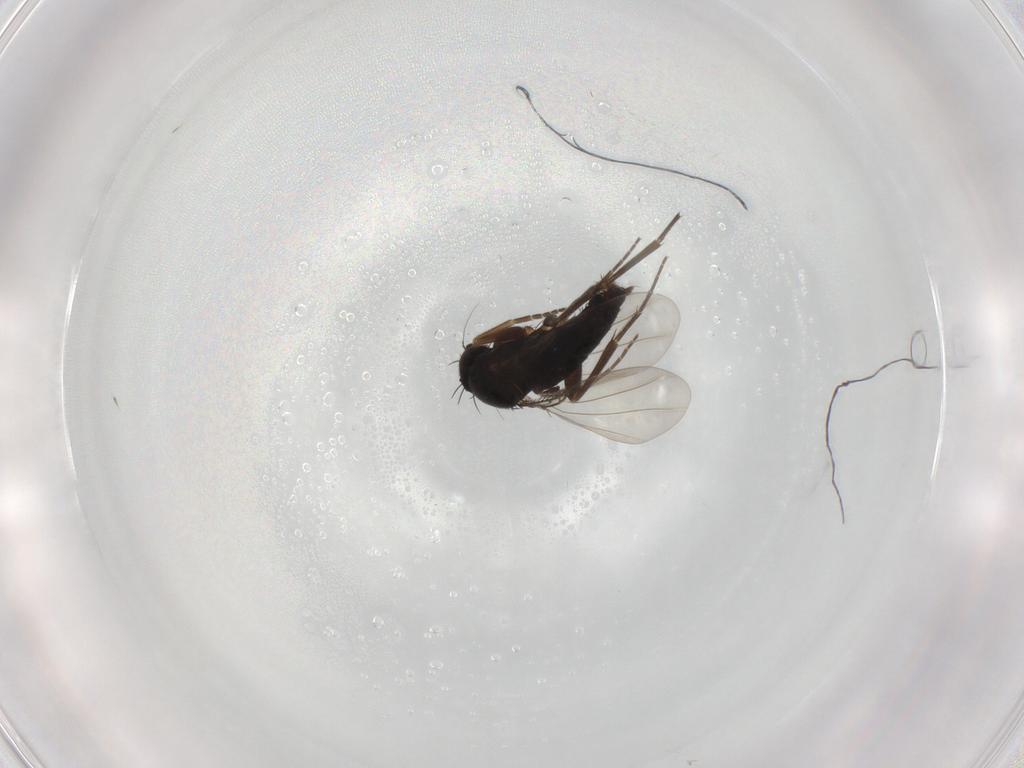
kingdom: Animalia
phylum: Arthropoda
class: Insecta
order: Diptera
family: Phoridae
